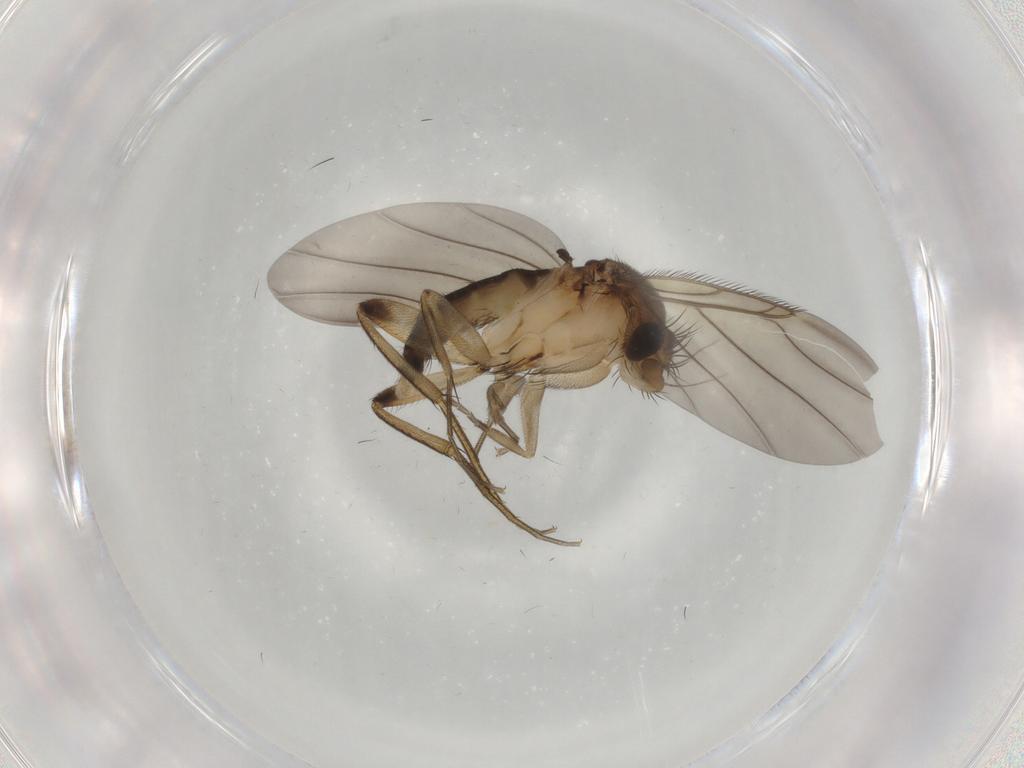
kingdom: Animalia
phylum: Arthropoda
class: Insecta
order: Diptera
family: Phoridae
